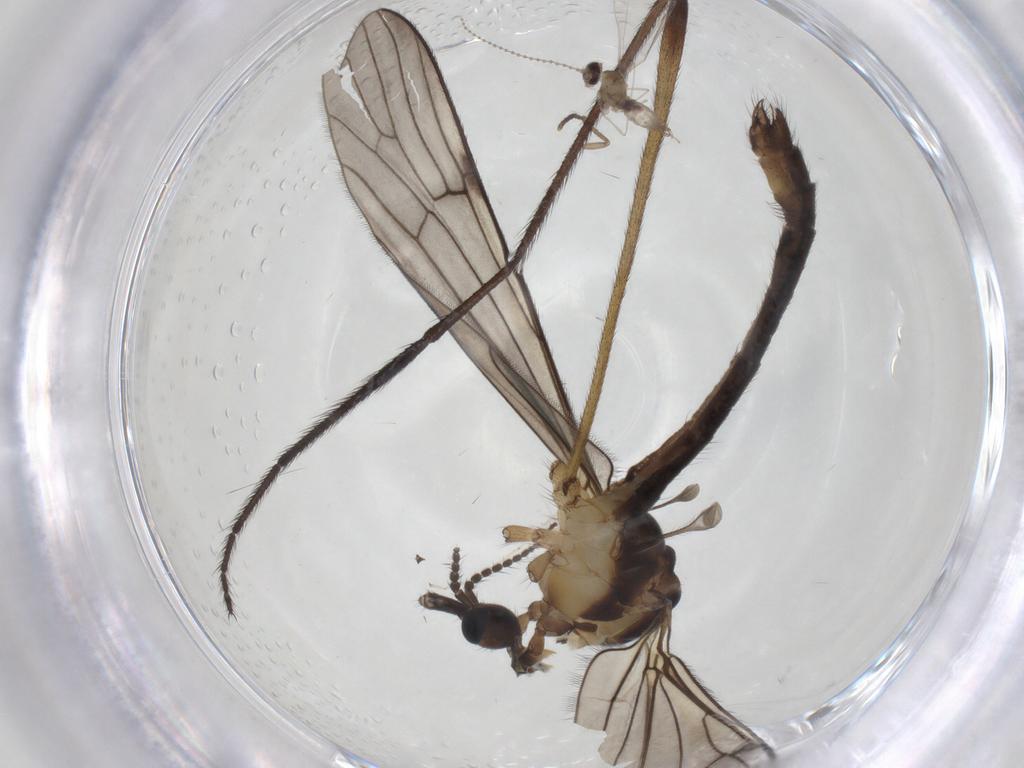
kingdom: Animalia
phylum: Arthropoda
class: Insecta
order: Diptera
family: Limoniidae
